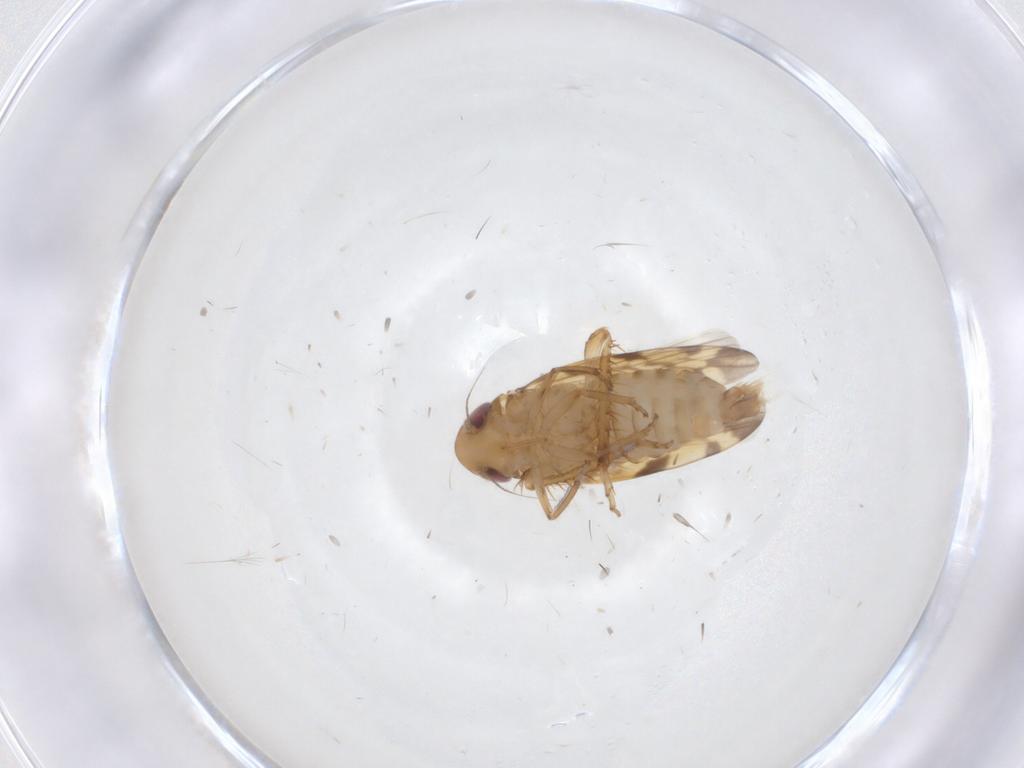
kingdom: Animalia
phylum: Arthropoda
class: Insecta
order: Hemiptera
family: Cicadellidae
